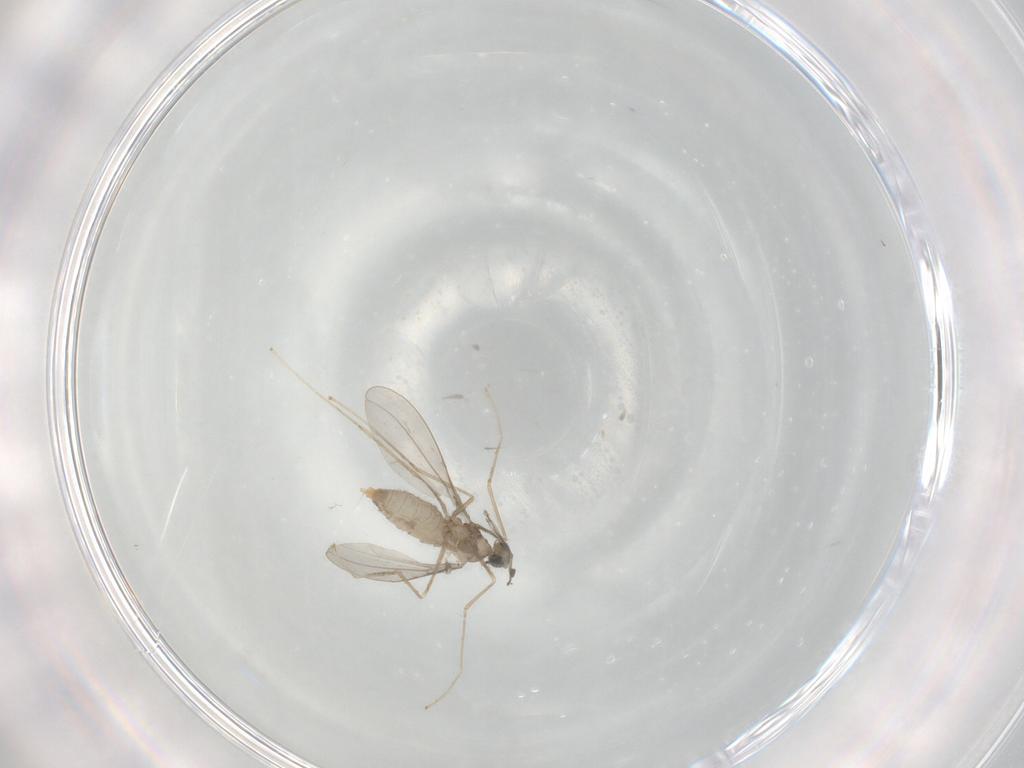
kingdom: Animalia
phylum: Arthropoda
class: Insecta
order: Diptera
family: Cecidomyiidae
